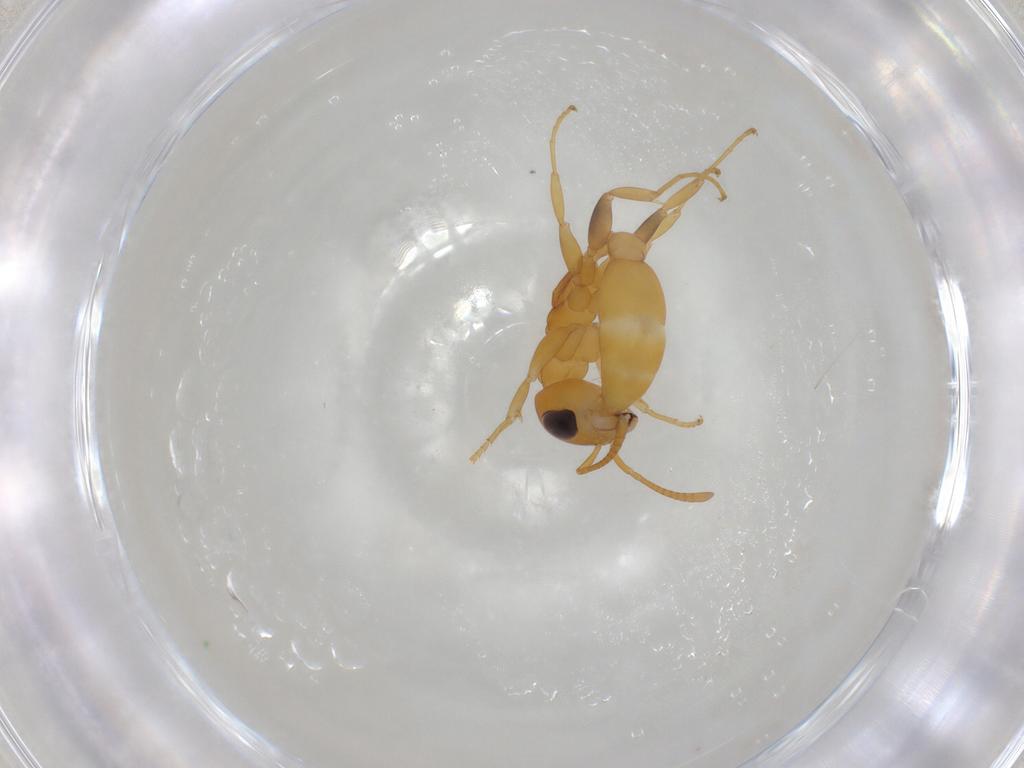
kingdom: Animalia
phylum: Arthropoda
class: Insecta
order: Hymenoptera
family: Formicidae
